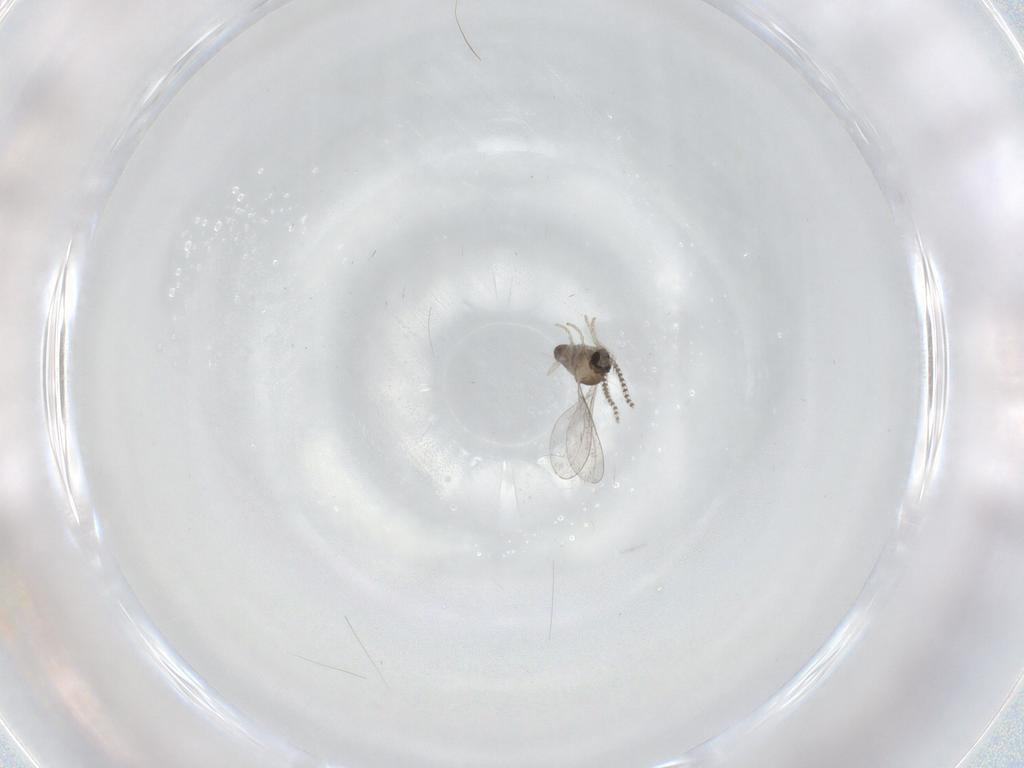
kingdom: Animalia
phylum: Arthropoda
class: Insecta
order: Diptera
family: Cecidomyiidae
